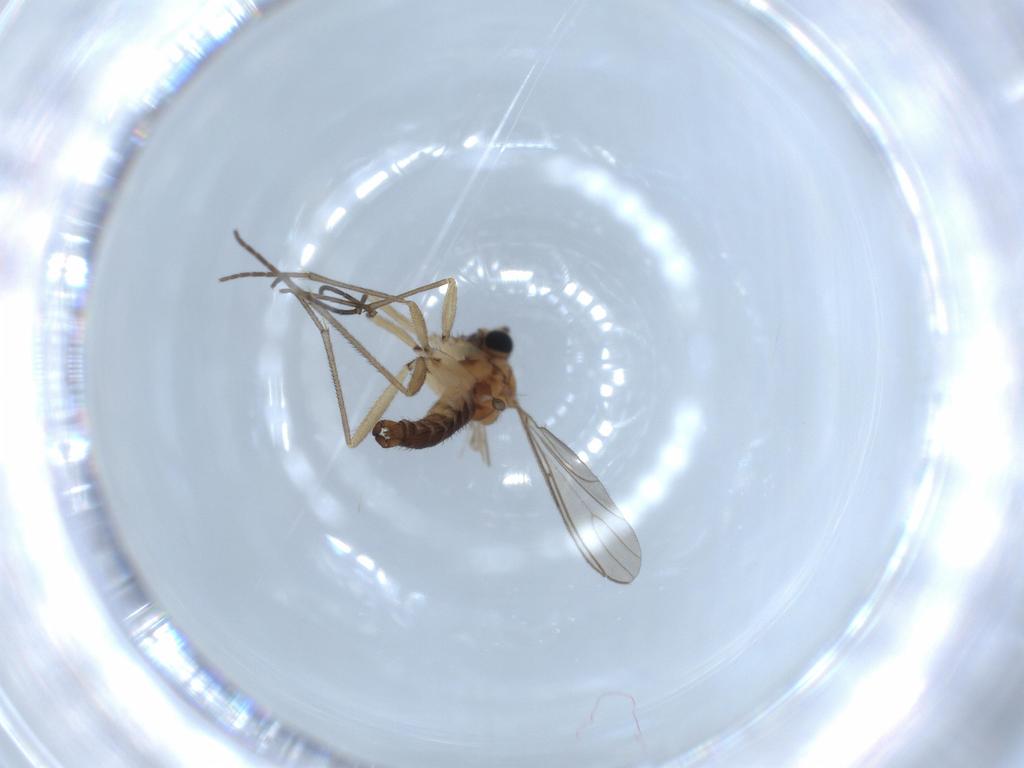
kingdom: Animalia
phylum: Arthropoda
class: Insecta
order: Diptera
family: Sciaridae
